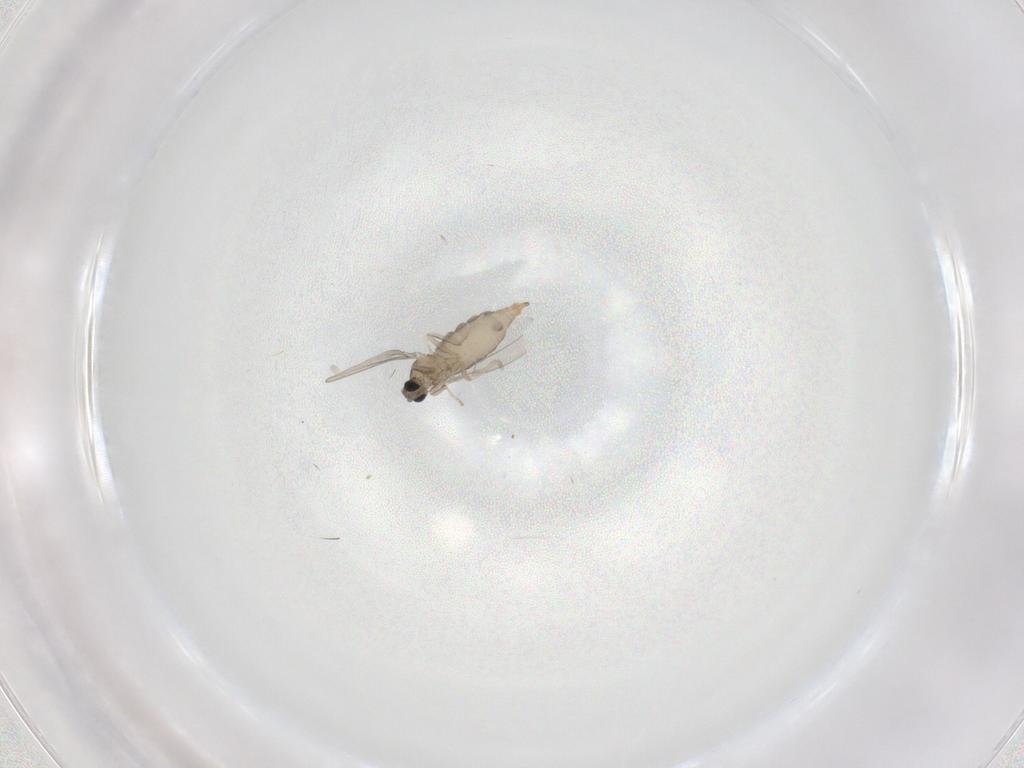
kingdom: Animalia
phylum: Arthropoda
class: Insecta
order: Diptera
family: Cecidomyiidae
